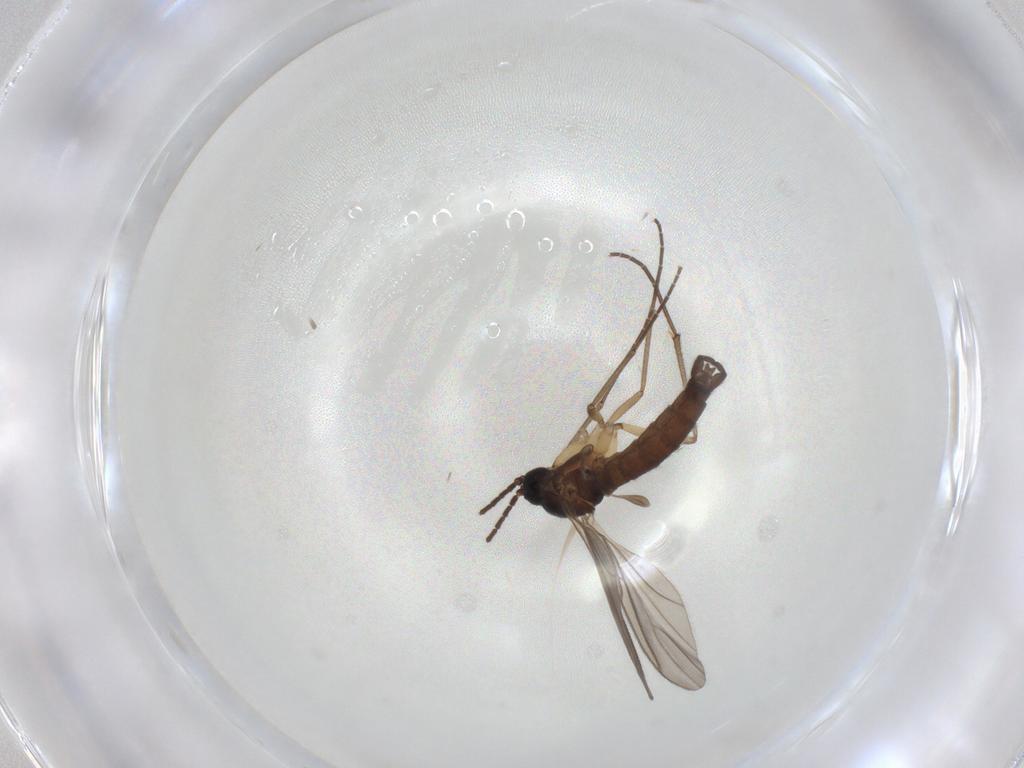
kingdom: Animalia
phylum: Arthropoda
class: Insecta
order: Diptera
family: Sciaridae
